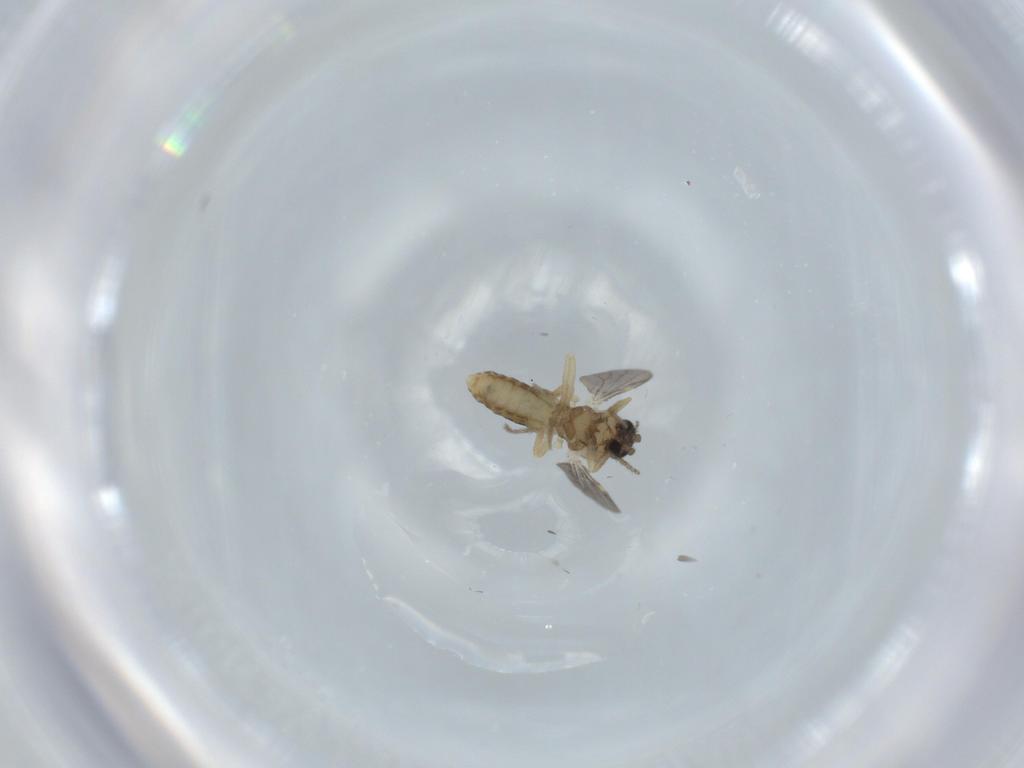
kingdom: Animalia
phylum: Arthropoda
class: Insecta
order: Diptera
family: Ceratopogonidae
